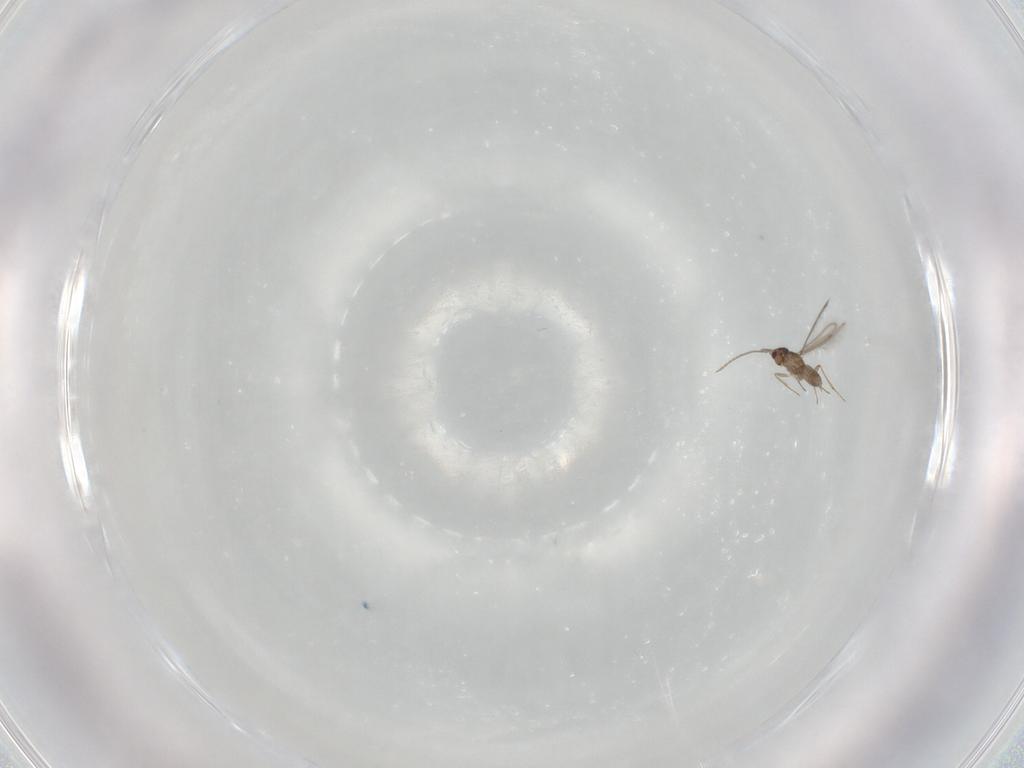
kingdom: Animalia
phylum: Arthropoda
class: Insecta
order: Hymenoptera
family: Mymaridae
